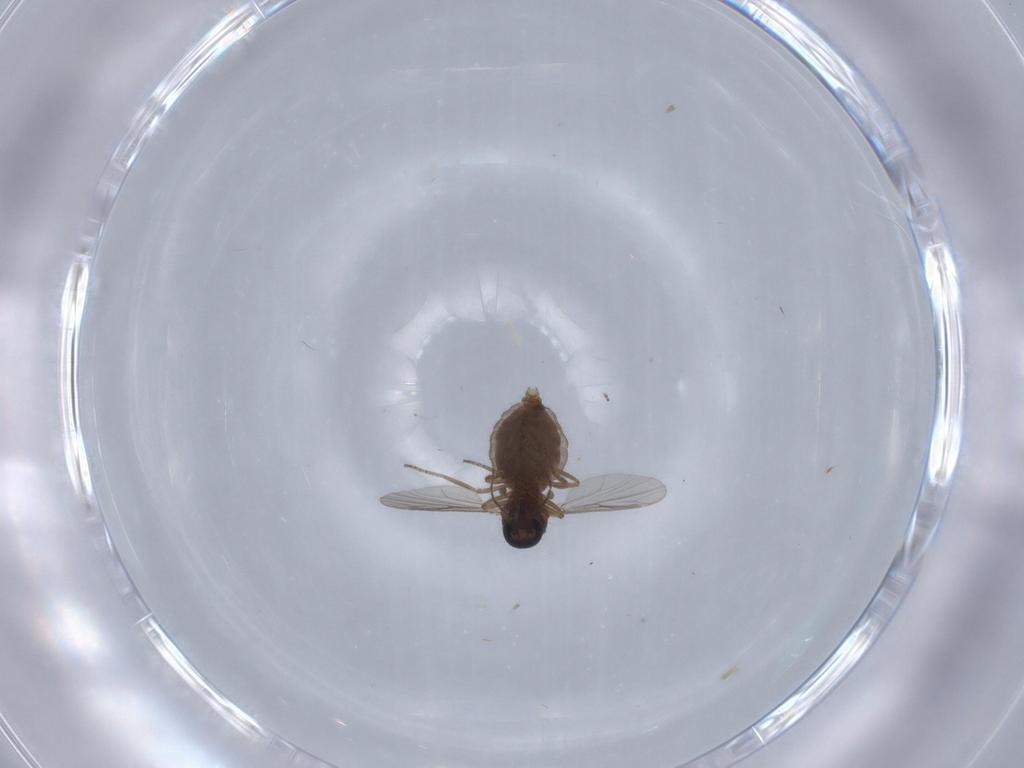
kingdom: Animalia
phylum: Arthropoda
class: Insecta
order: Diptera
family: Ceratopogonidae
